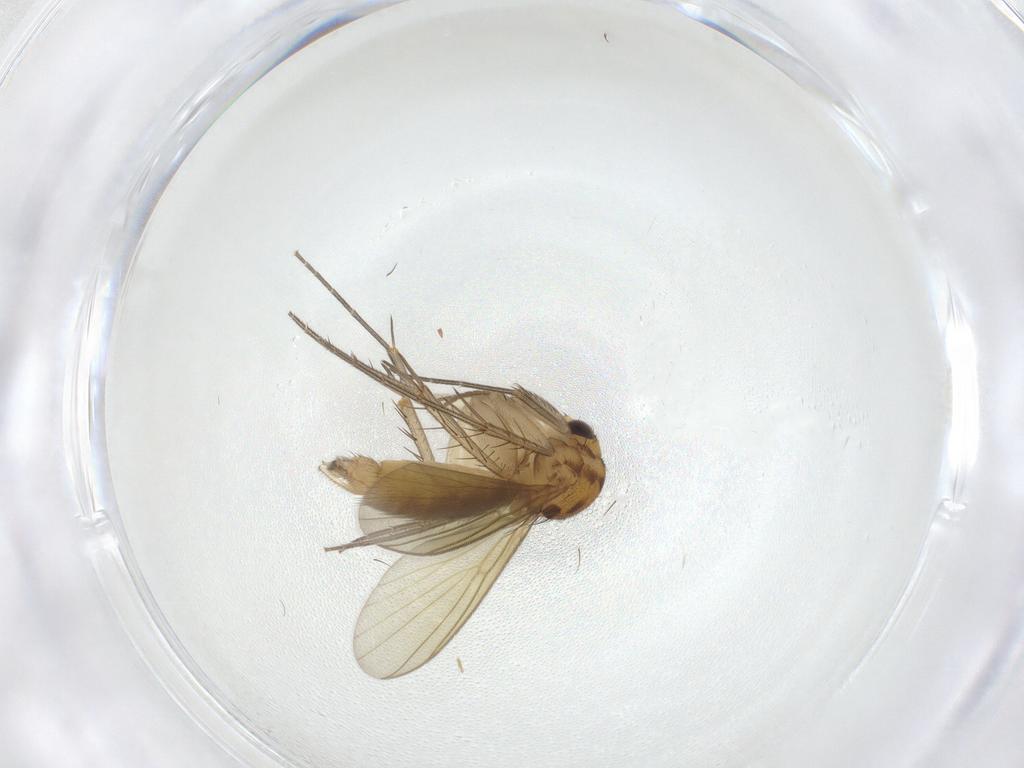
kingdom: Animalia
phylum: Arthropoda
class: Insecta
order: Diptera
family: Mycetophilidae
